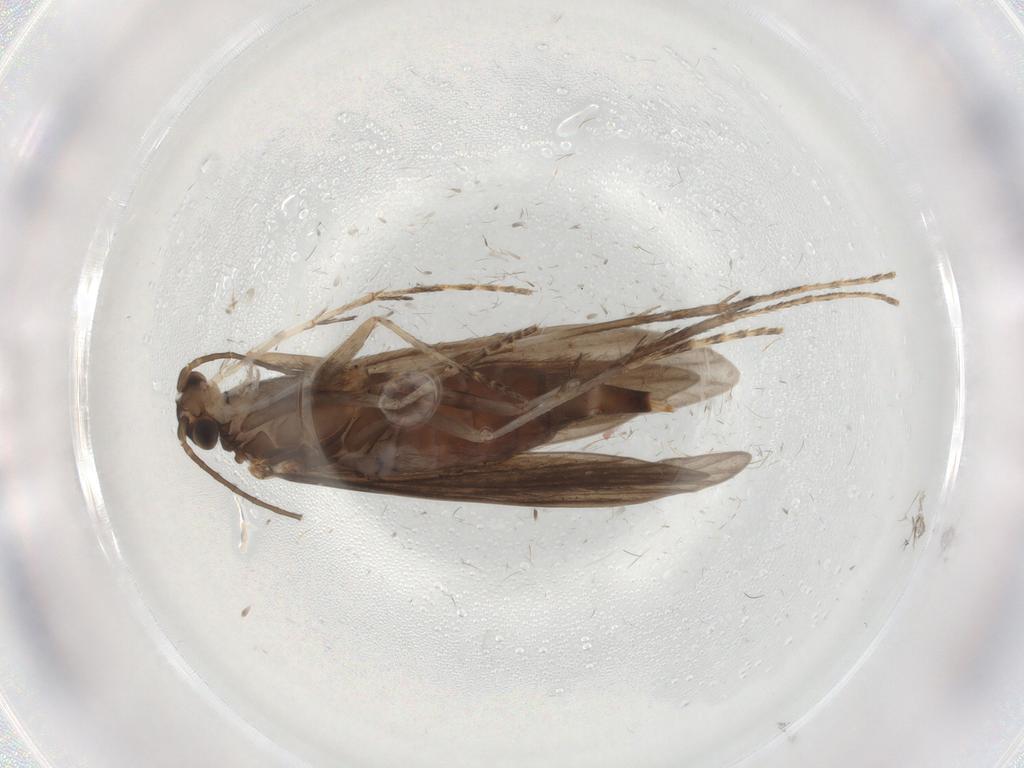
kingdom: Animalia
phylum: Arthropoda
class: Insecta
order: Trichoptera
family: Xiphocentronidae
